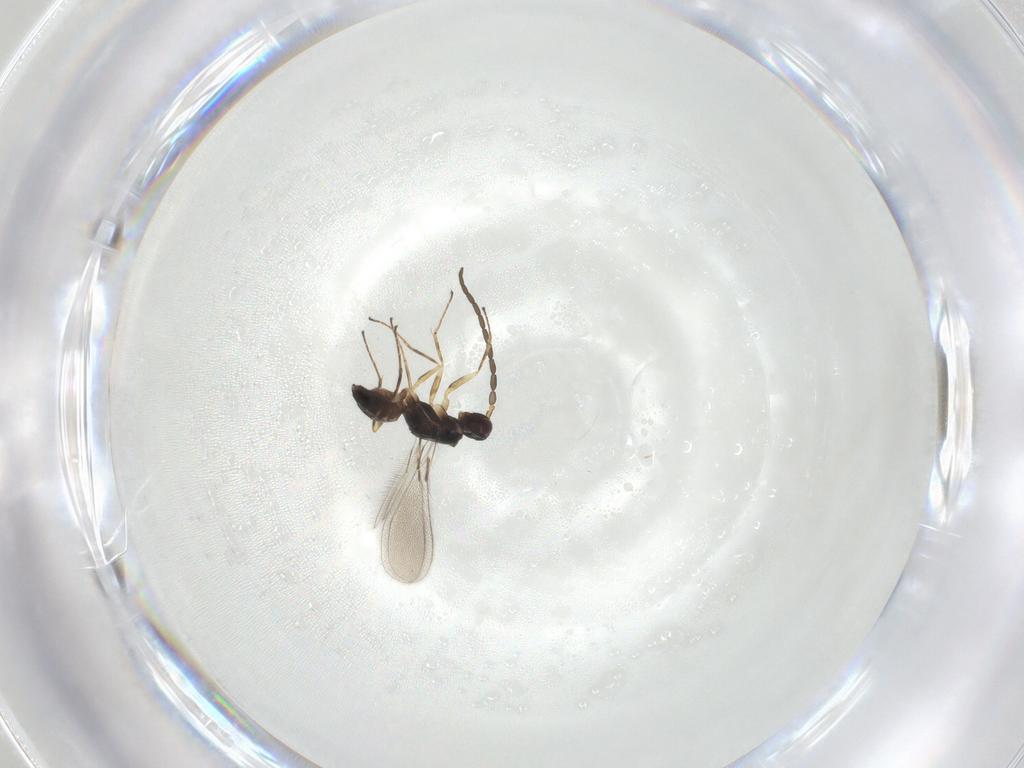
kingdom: Animalia
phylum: Arthropoda
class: Insecta
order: Hymenoptera
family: Mymaridae
